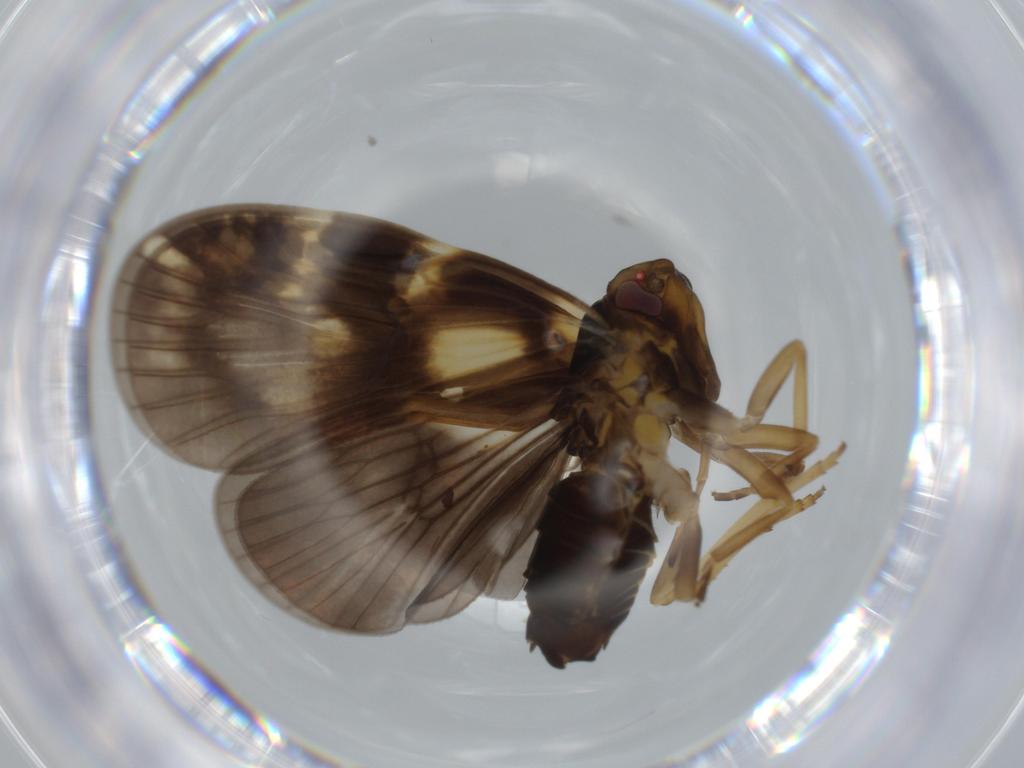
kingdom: Animalia
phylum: Arthropoda
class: Insecta
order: Hemiptera
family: Cixiidae
